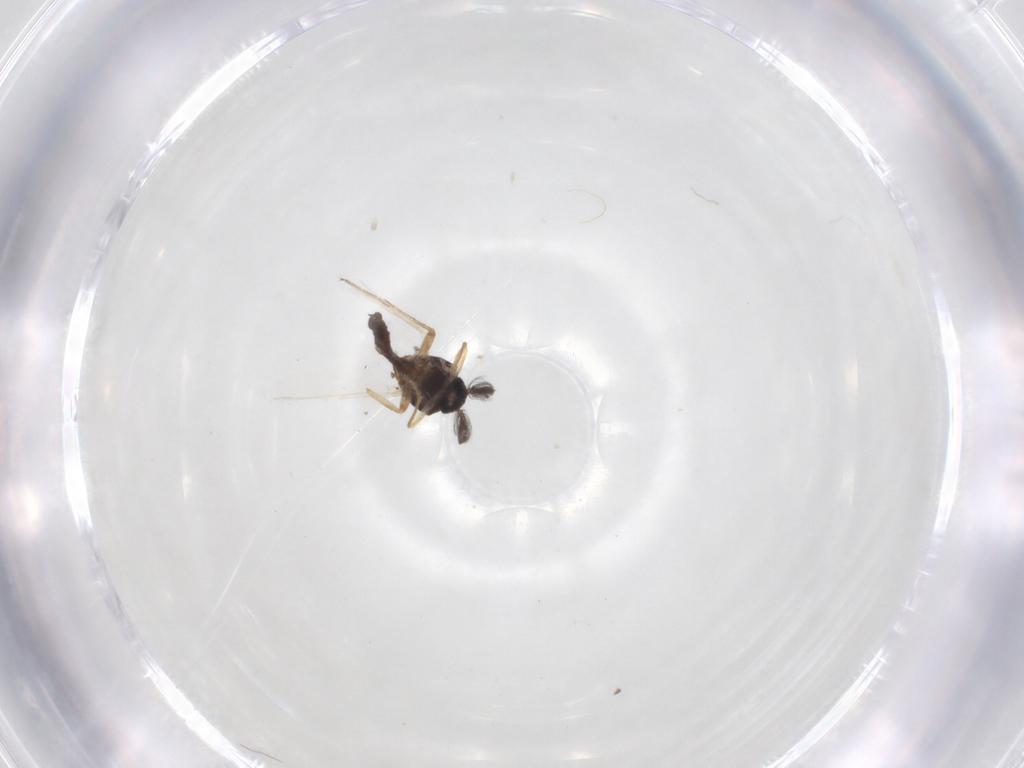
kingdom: Animalia
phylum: Arthropoda
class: Insecta
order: Diptera
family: Ceratopogonidae
